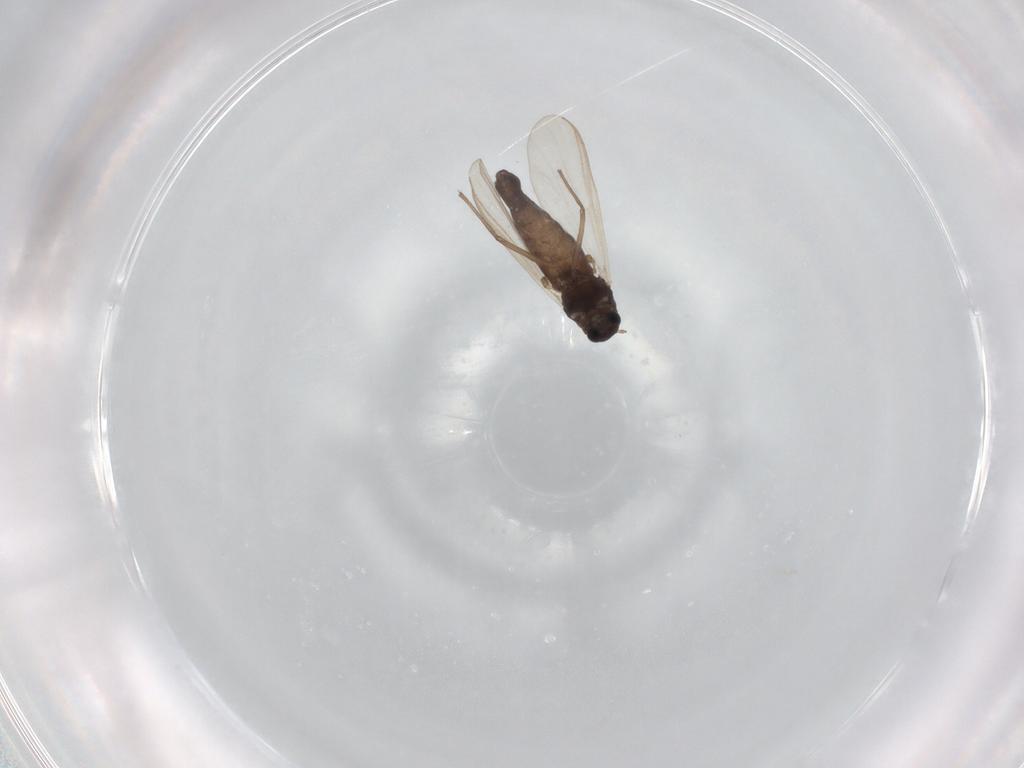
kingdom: Animalia
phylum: Arthropoda
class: Insecta
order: Diptera
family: Chironomidae
